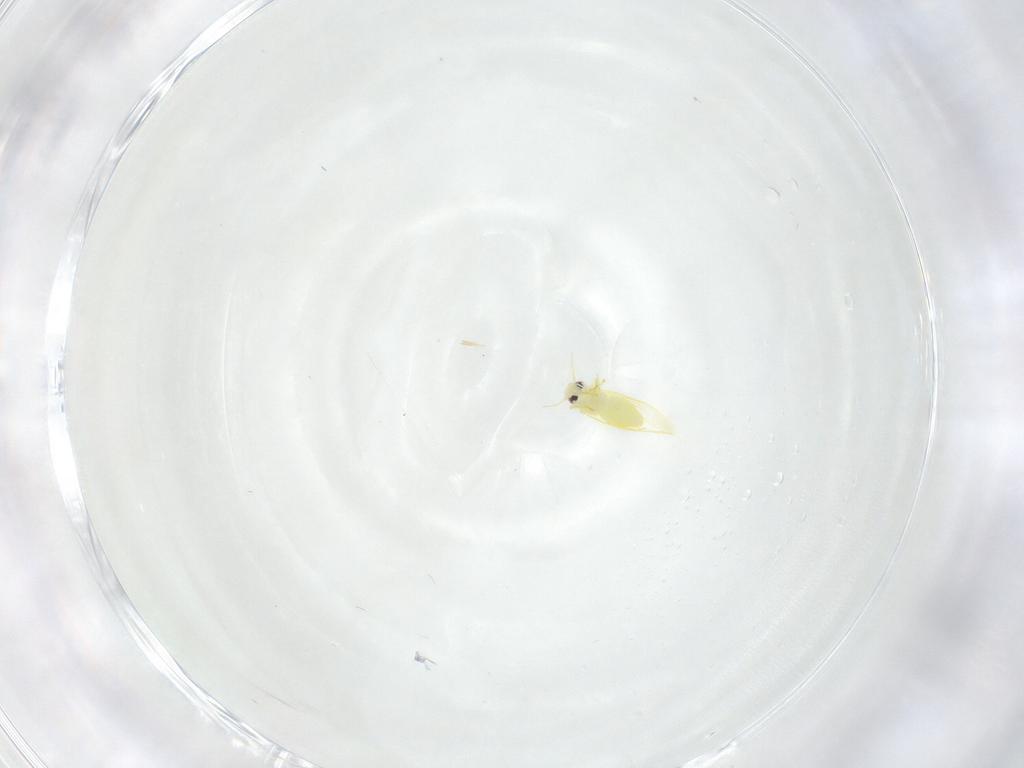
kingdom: Animalia
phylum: Arthropoda
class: Insecta
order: Hemiptera
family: Aleyrodidae
